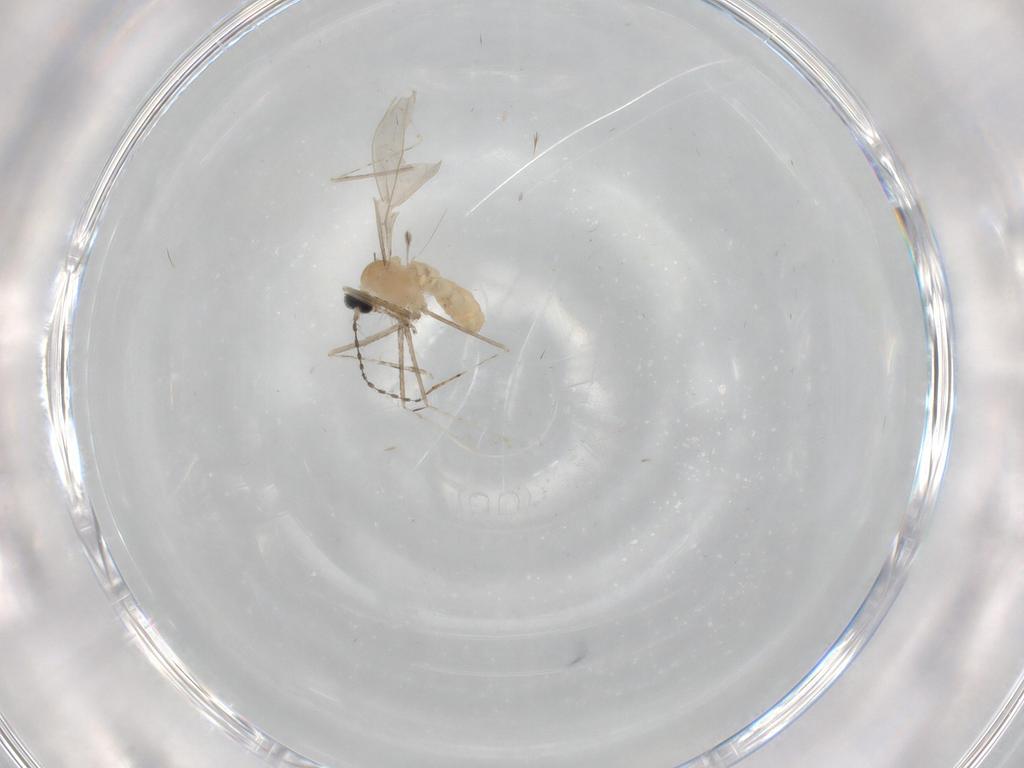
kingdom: Animalia
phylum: Arthropoda
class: Insecta
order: Diptera
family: Cecidomyiidae
